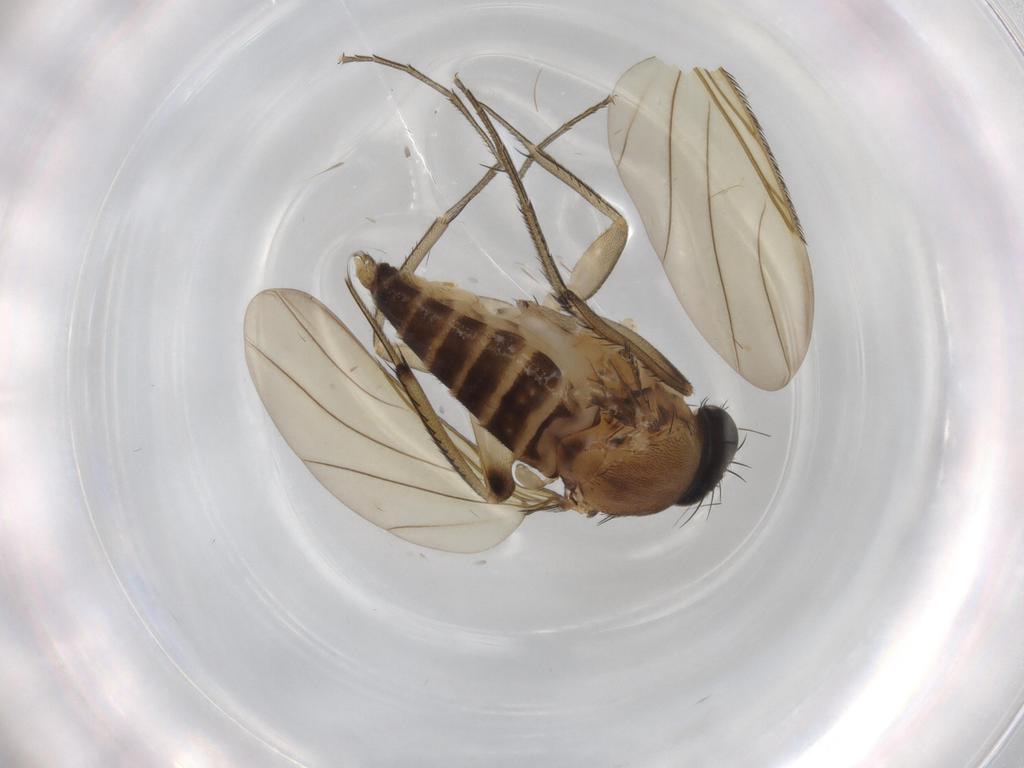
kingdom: Animalia
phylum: Arthropoda
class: Insecta
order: Diptera
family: Phoridae
